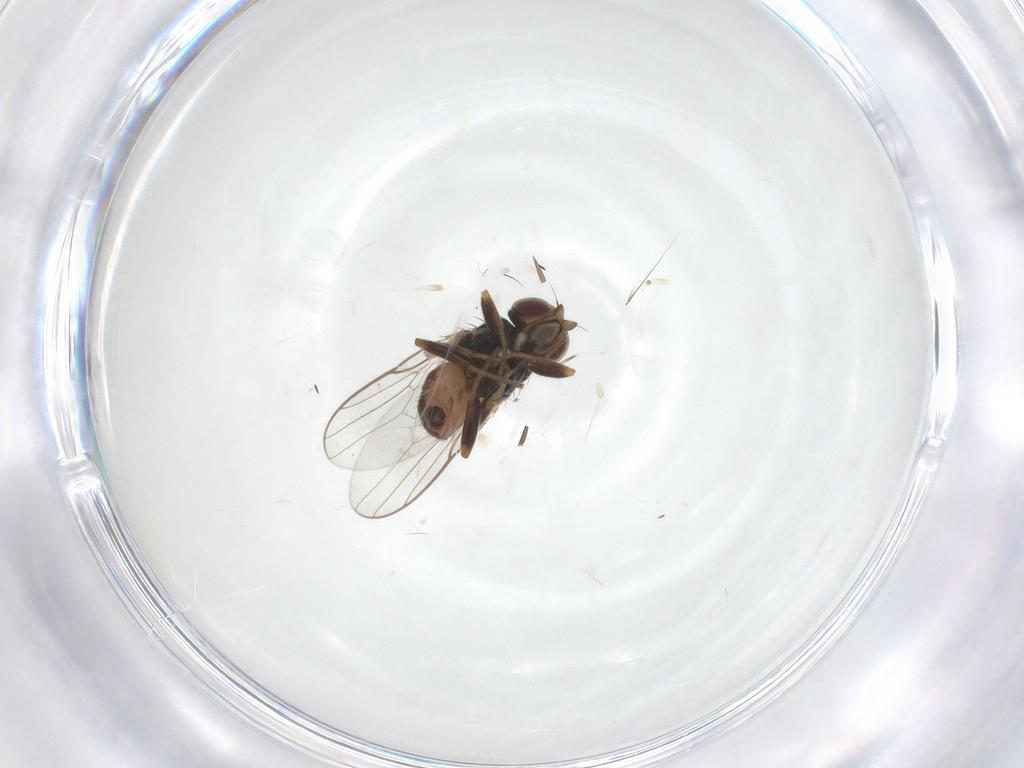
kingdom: Animalia
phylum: Arthropoda
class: Insecta
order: Diptera
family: Chloropidae
